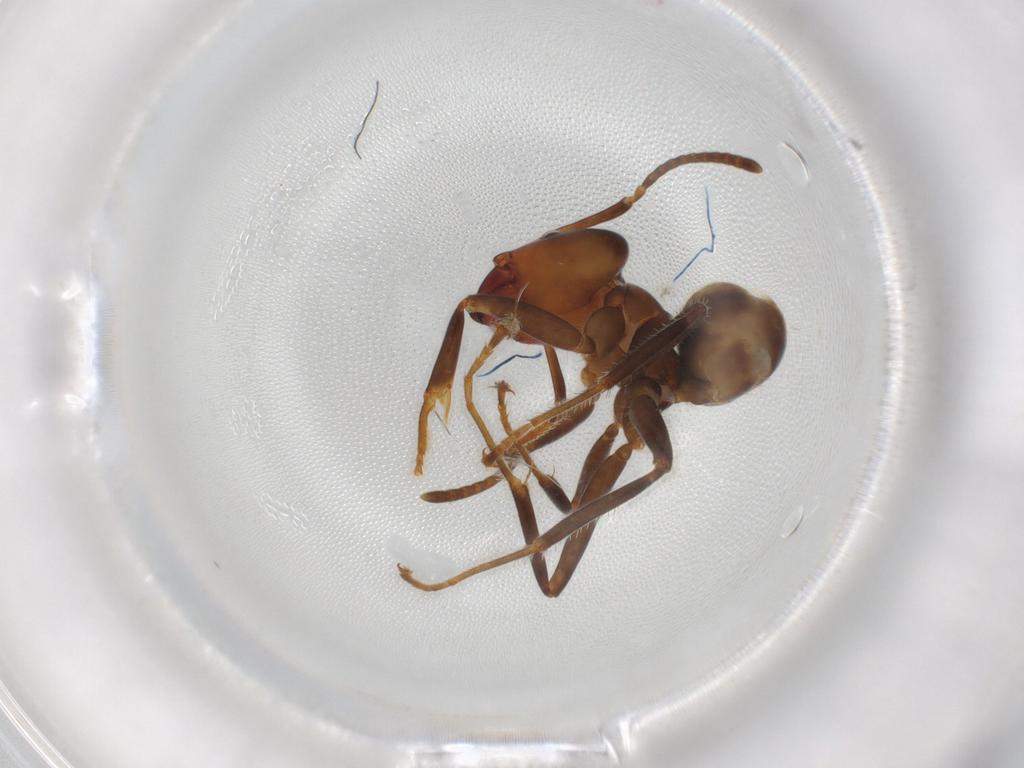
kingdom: Animalia
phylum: Arthropoda
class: Insecta
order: Hymenoptera
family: Formicidae
